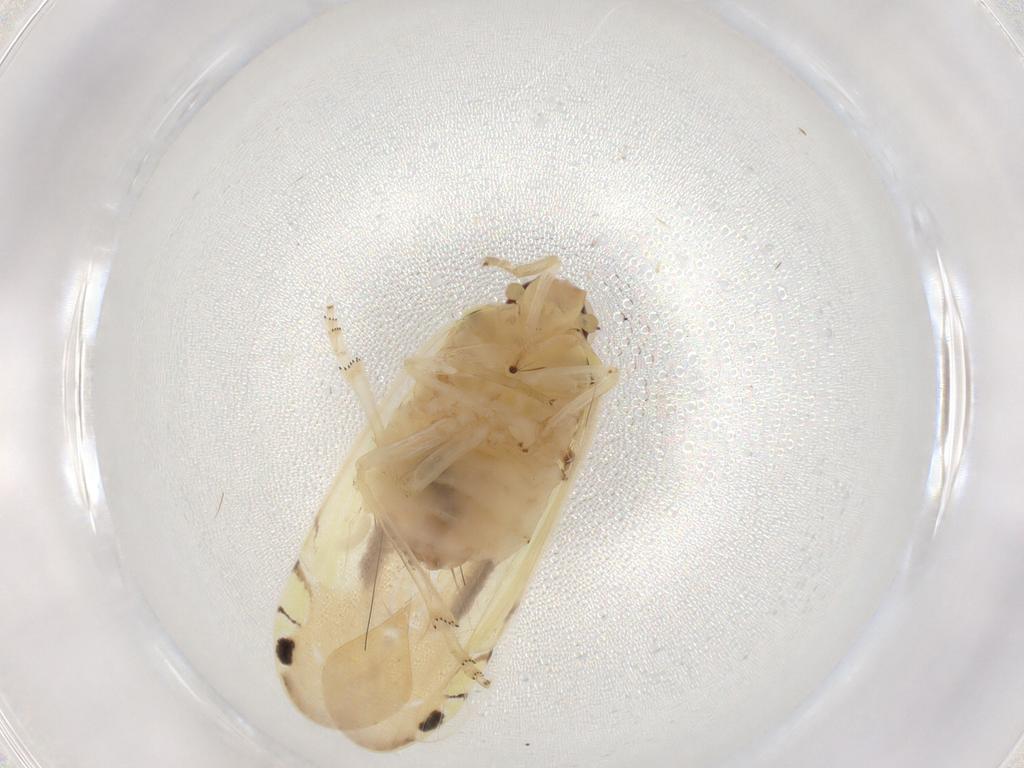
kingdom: Animalia
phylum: Arthropoda
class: Insecta
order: Hemiptera
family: Achilidae
